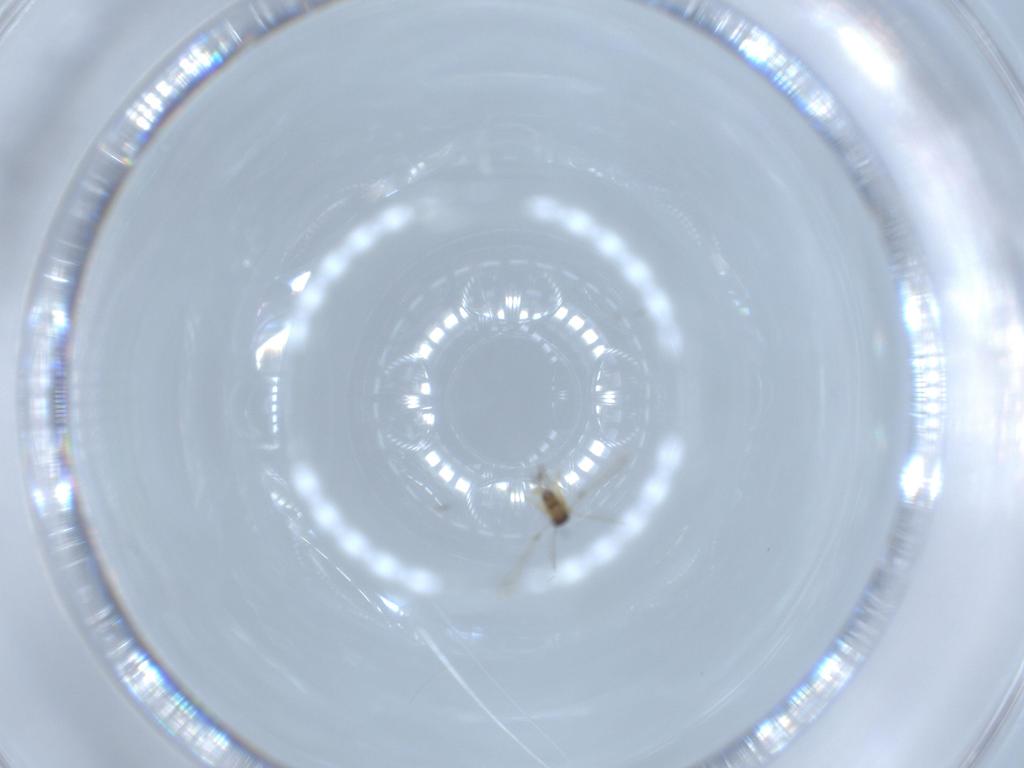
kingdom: Animalia
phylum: Arthropoda
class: Insecta
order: Hymenoptera
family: Mymaridae
